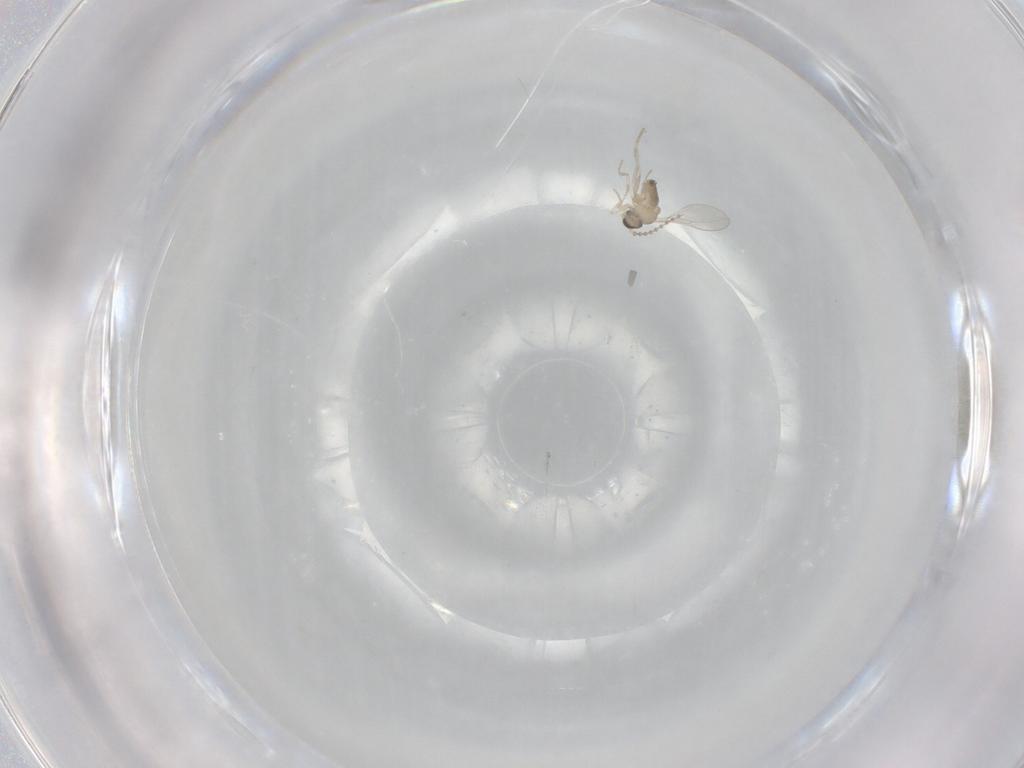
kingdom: Animalia
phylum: Arthropoda
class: Insecta
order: Diptera
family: Cecidomyiidae
